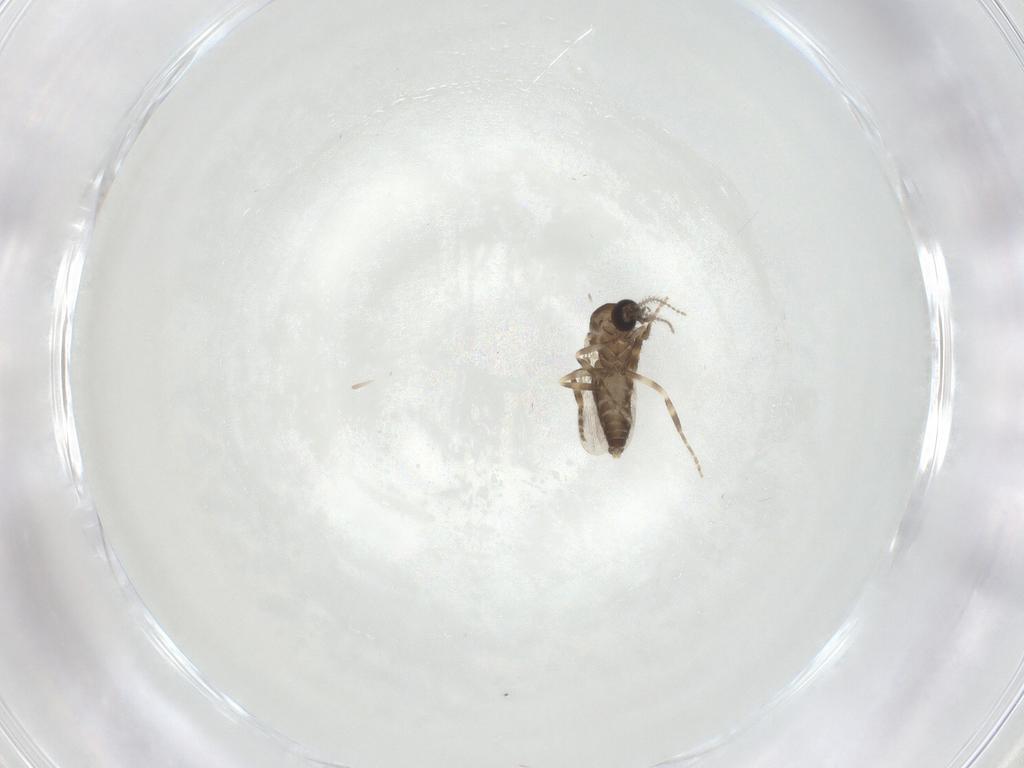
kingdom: Animalia
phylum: Arthropoda
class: Insecta
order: Diptera
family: Ceratopogonidae
